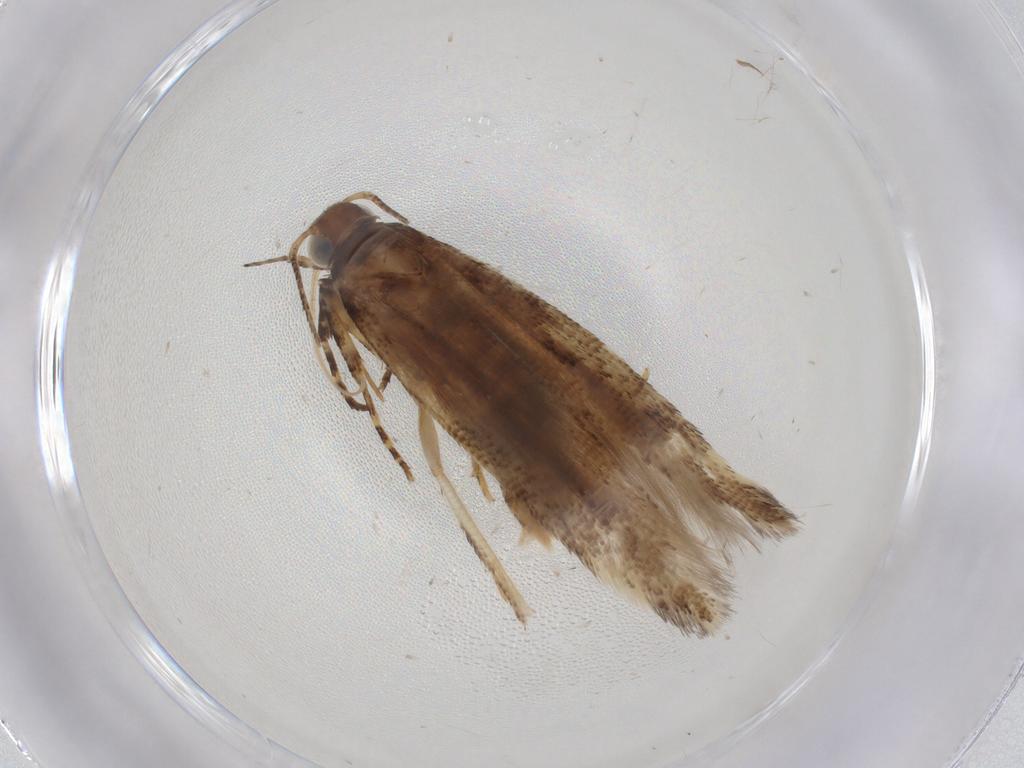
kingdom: Animalia
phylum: Arthropoda
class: Insecta
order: Lepidoptera
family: Gelechiidae
